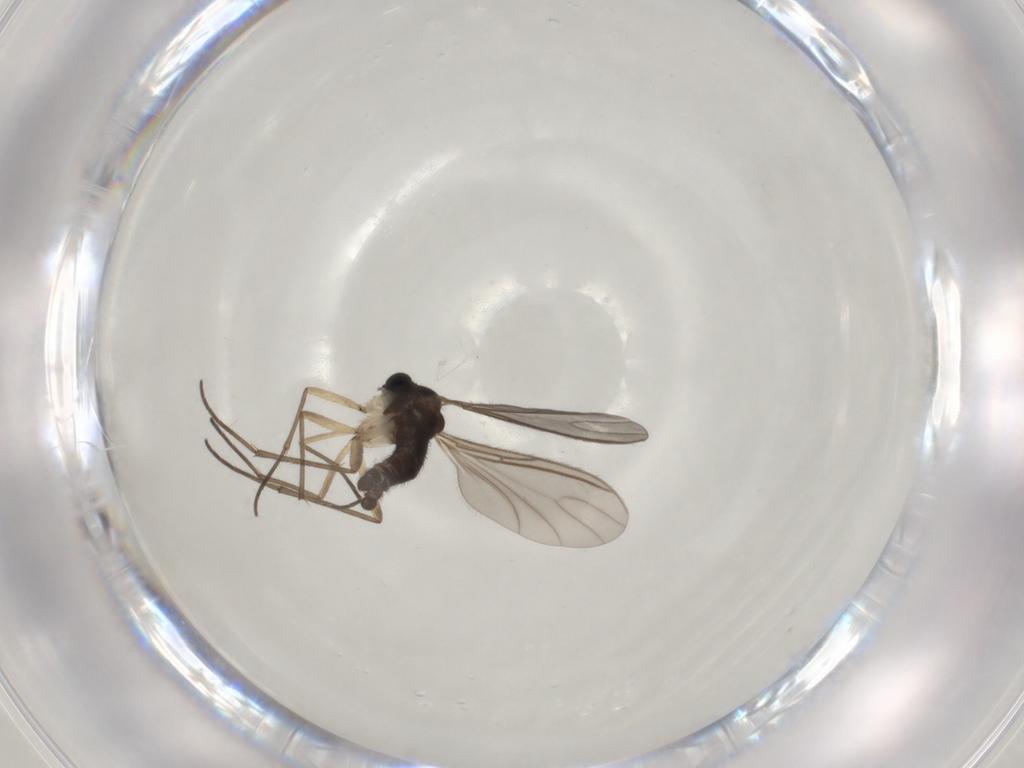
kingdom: Animalia
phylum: Arthropoda
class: Insecta
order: Diptera
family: Sciaridae
